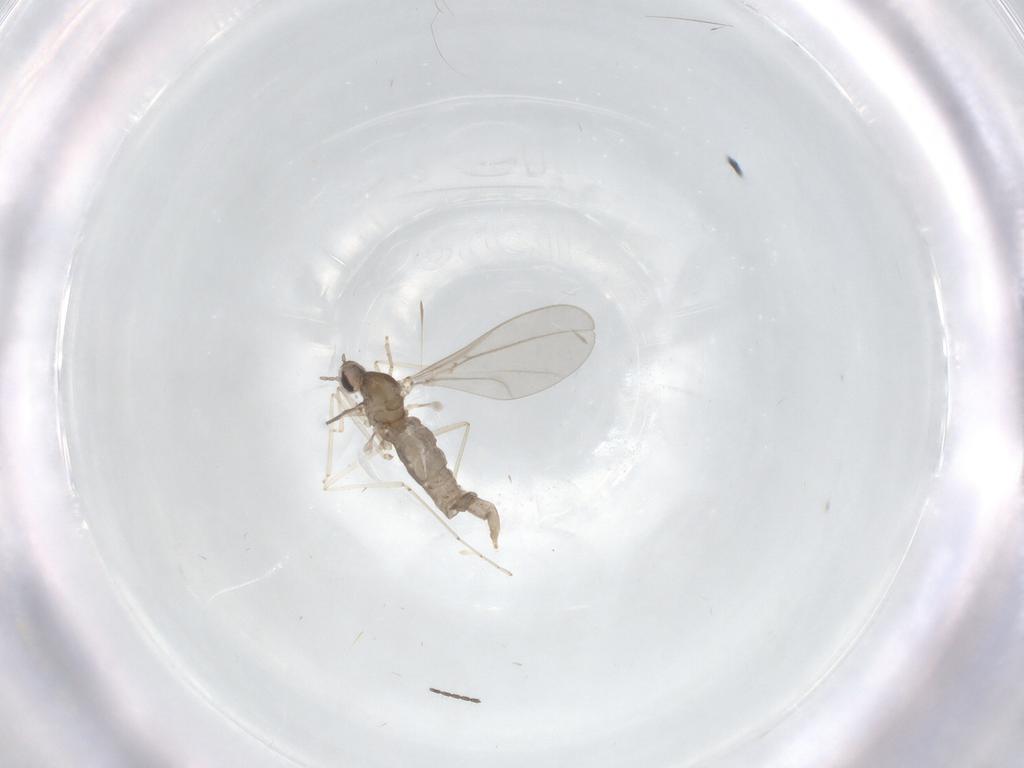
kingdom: Animalia
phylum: Arthropoda
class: Insecta
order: Diptera
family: Cecidomyiidae
